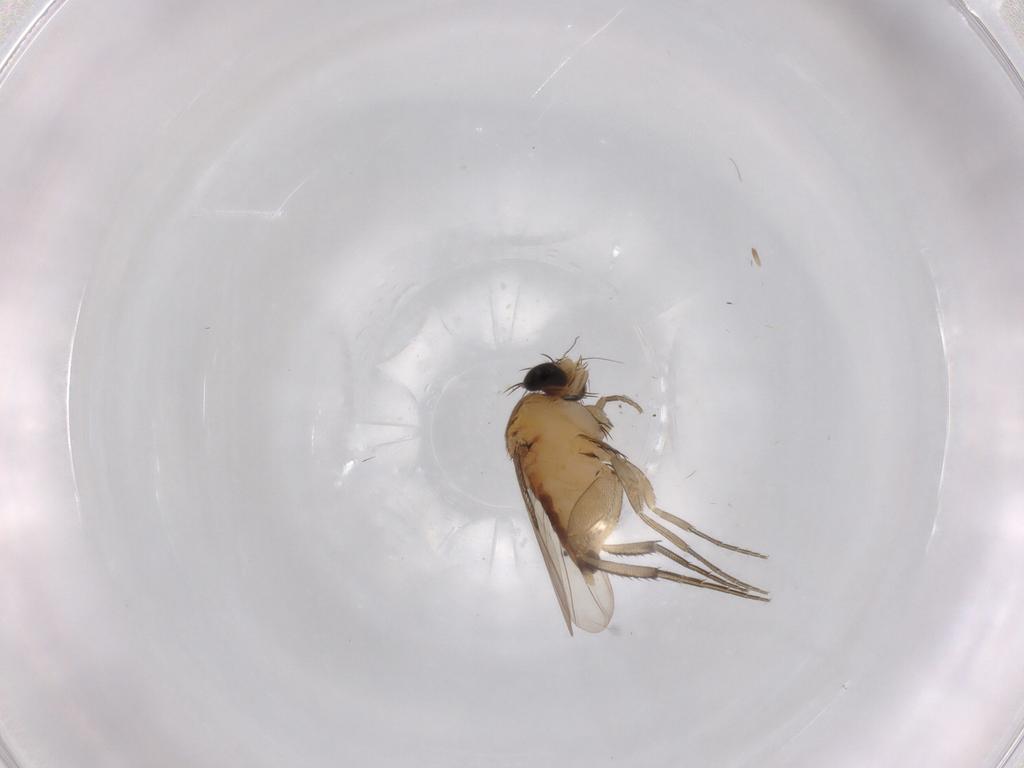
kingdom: Animalia
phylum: Arthropoda
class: Insecta
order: Diptera
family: Phoridae
